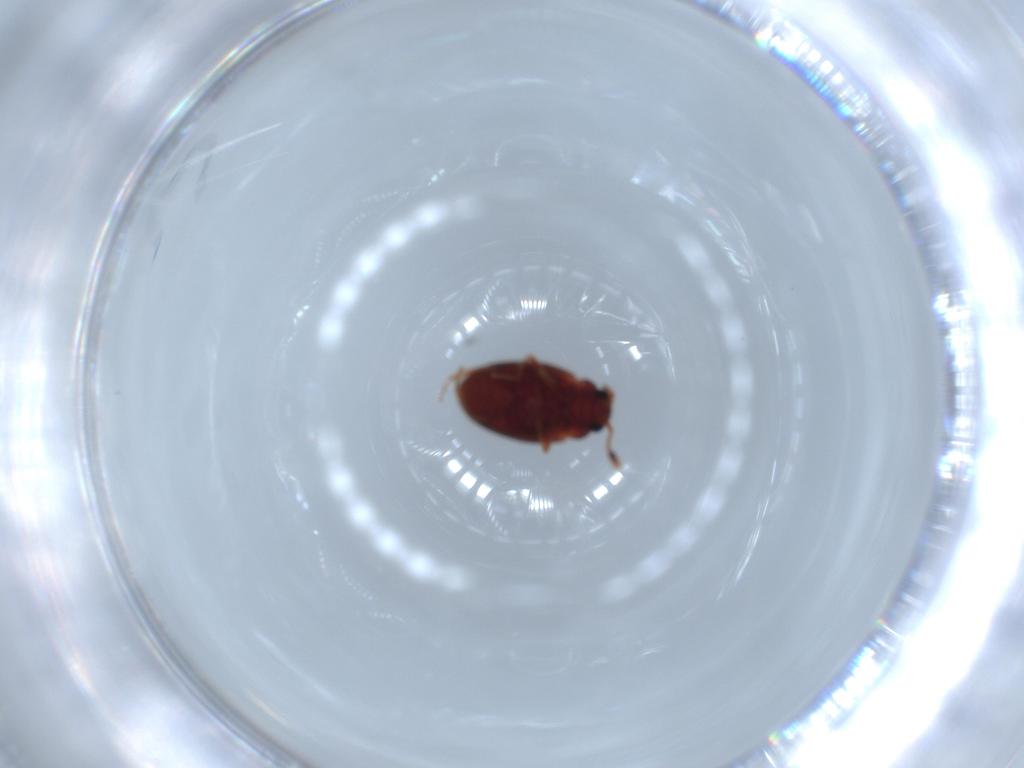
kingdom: Animalia
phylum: Arthropoda
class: Insecta
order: Coleoptera
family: Erotylidae
